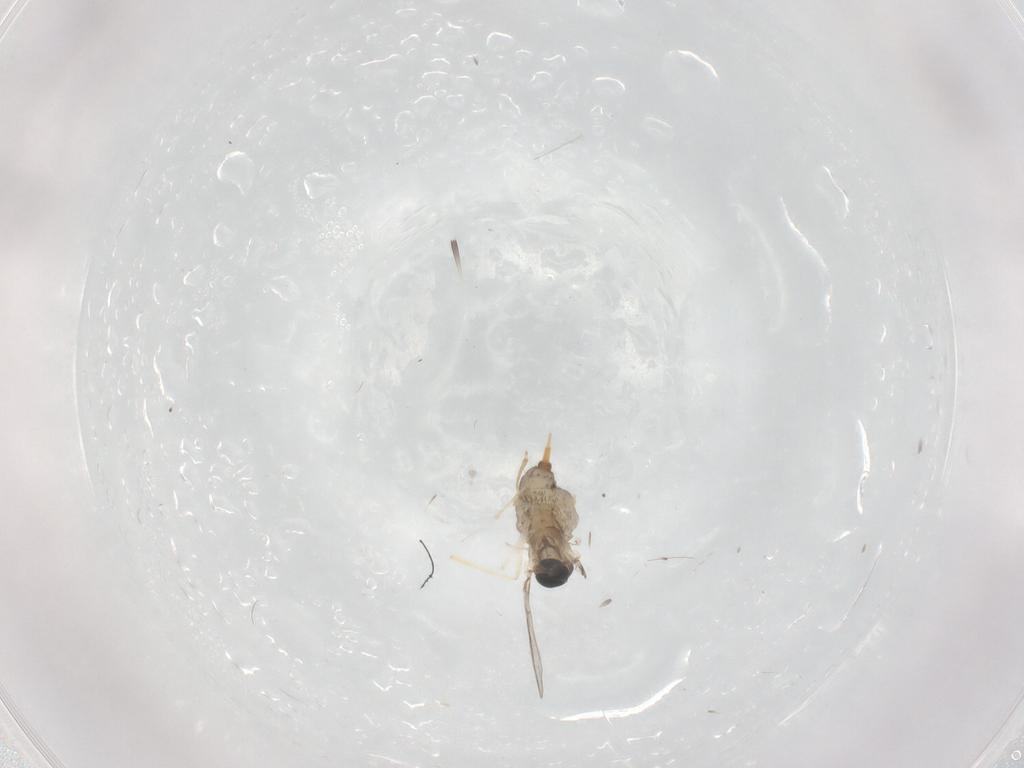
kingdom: Animalia
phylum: Arthropoda
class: Insecta
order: Diptera
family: Cecidomyiidae
